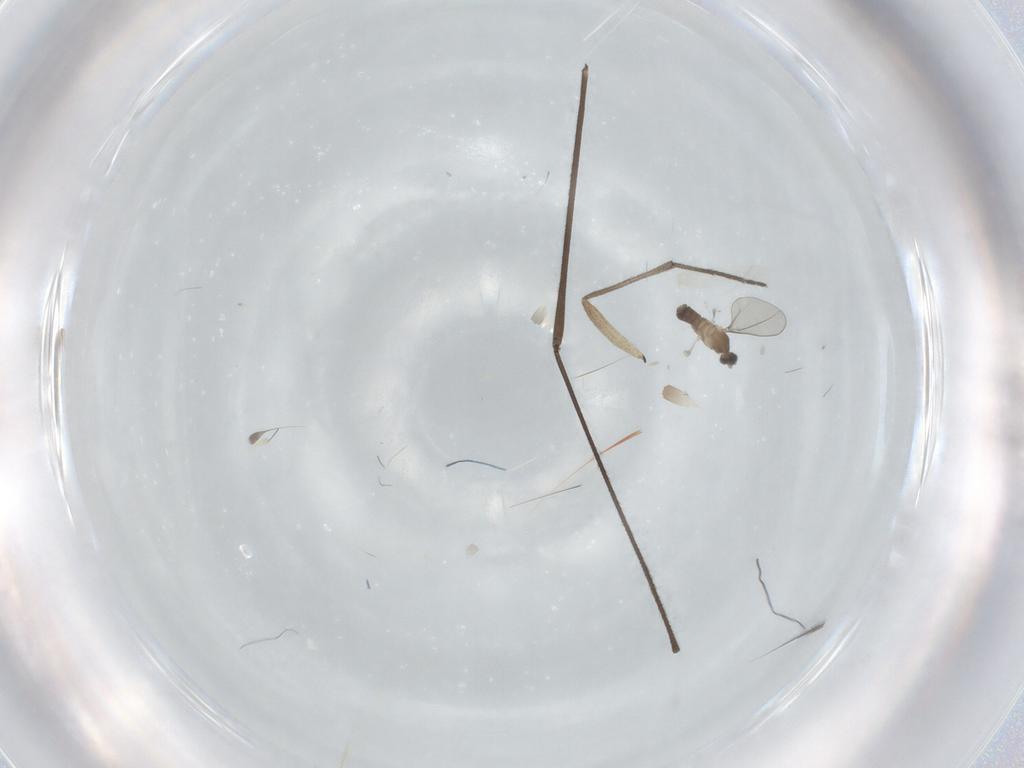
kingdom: Animalia
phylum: Arthropoda
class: Insecta
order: Diptera
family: Cecidomyiidae
